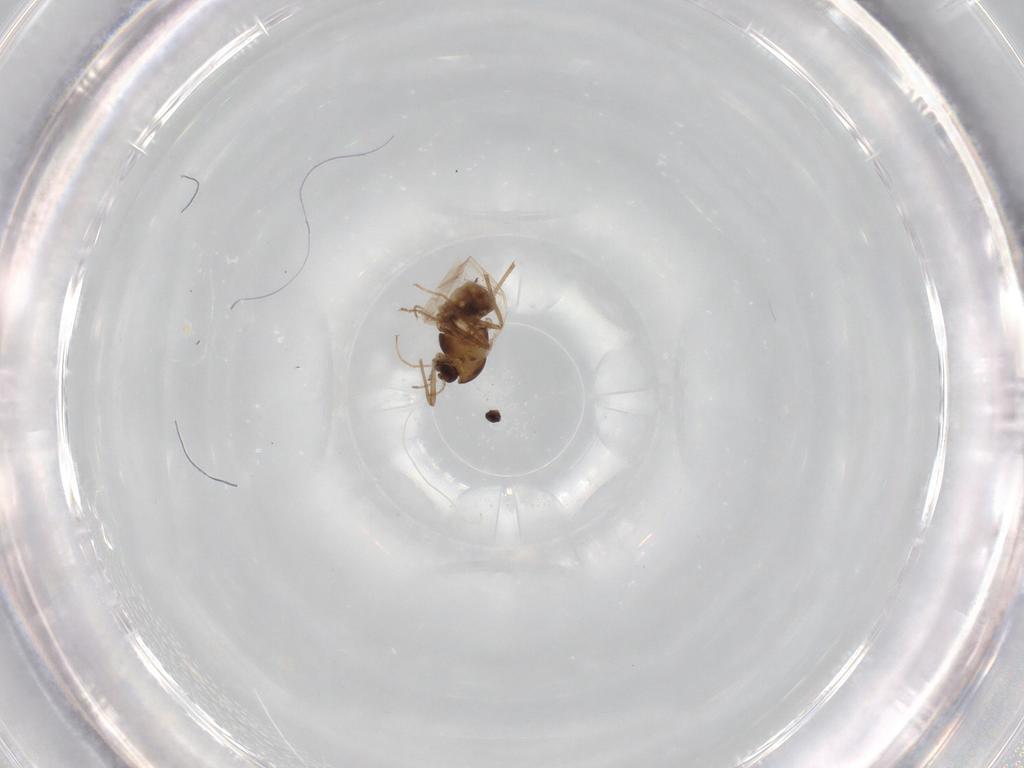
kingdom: Animalia
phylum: Arthropoda
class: Insecta
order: Diptera
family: Chironomidae
